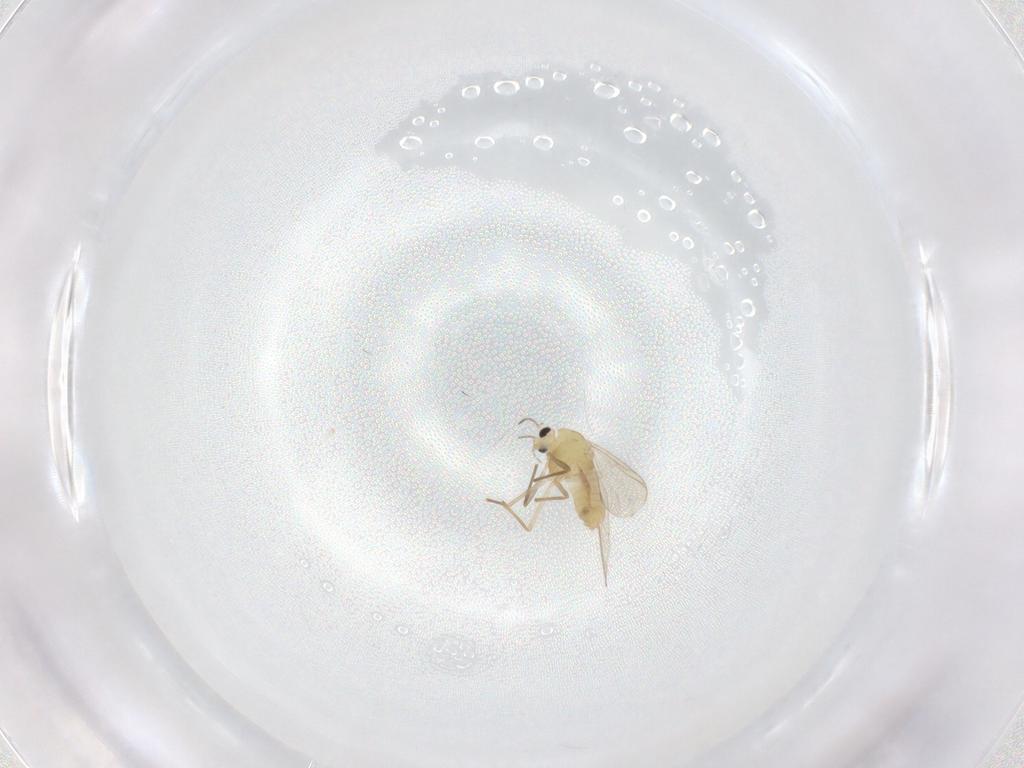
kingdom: Animalia
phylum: Arthropoda
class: Insecta
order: Diptera
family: Chironomidae
